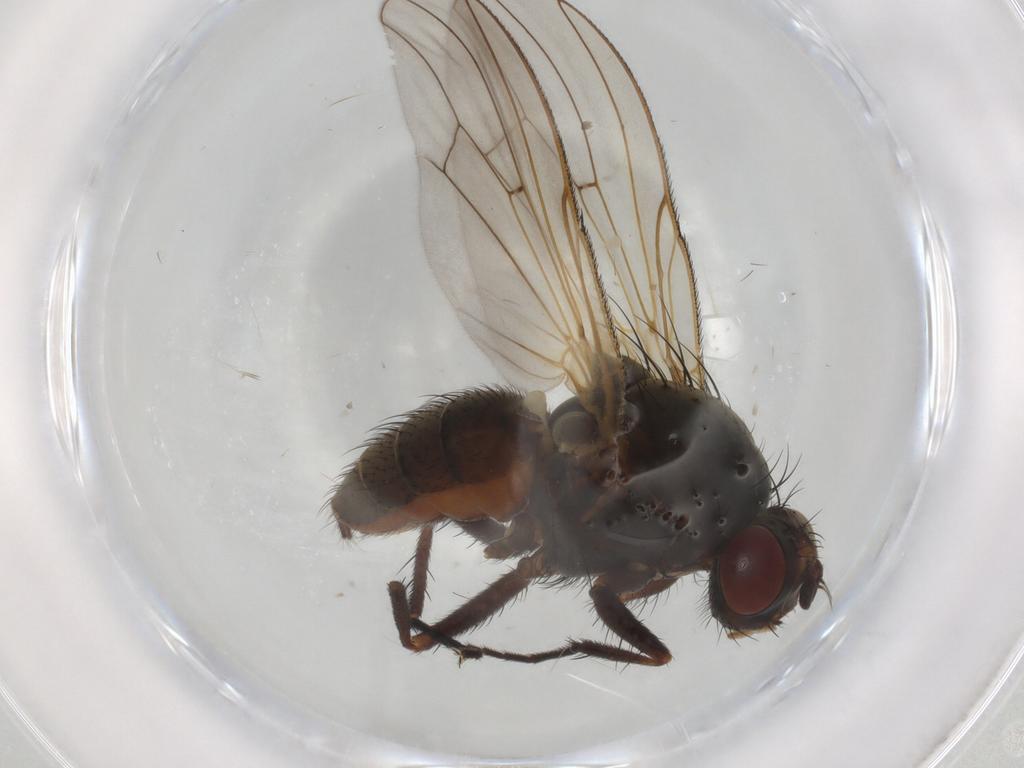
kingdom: Animalia
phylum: Arthropoda
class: Insecta
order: Diptera
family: Anthomyiidae
